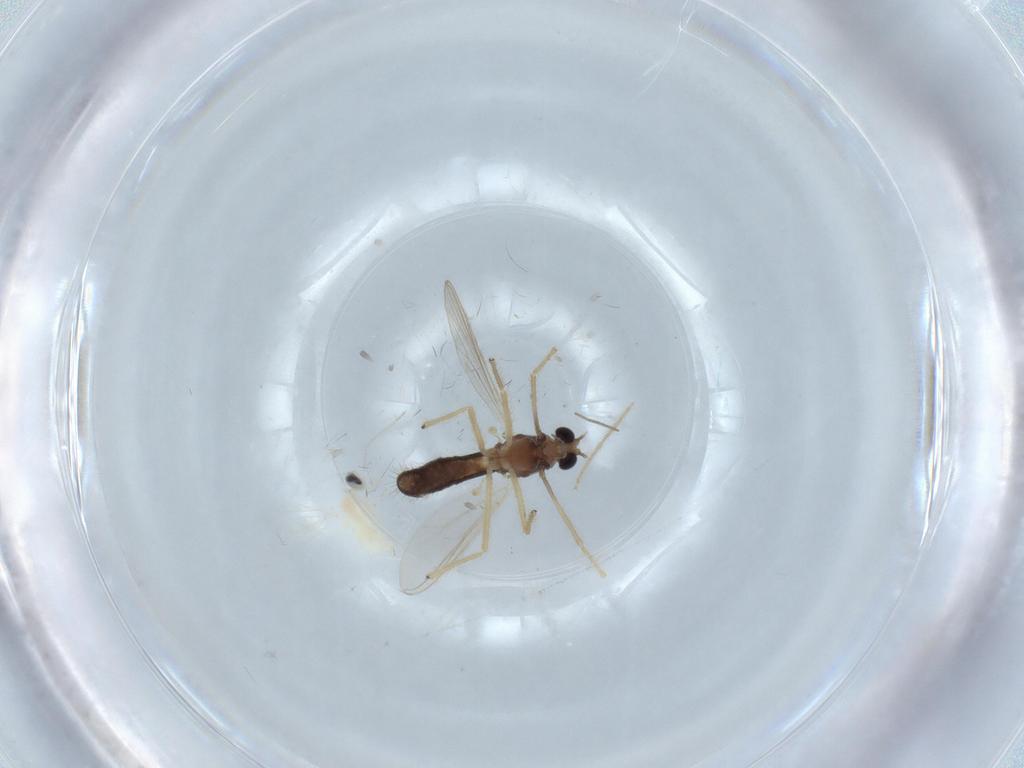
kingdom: Animalia
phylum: Arthropoda
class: Insecta
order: Diptera
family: Chironomidae
